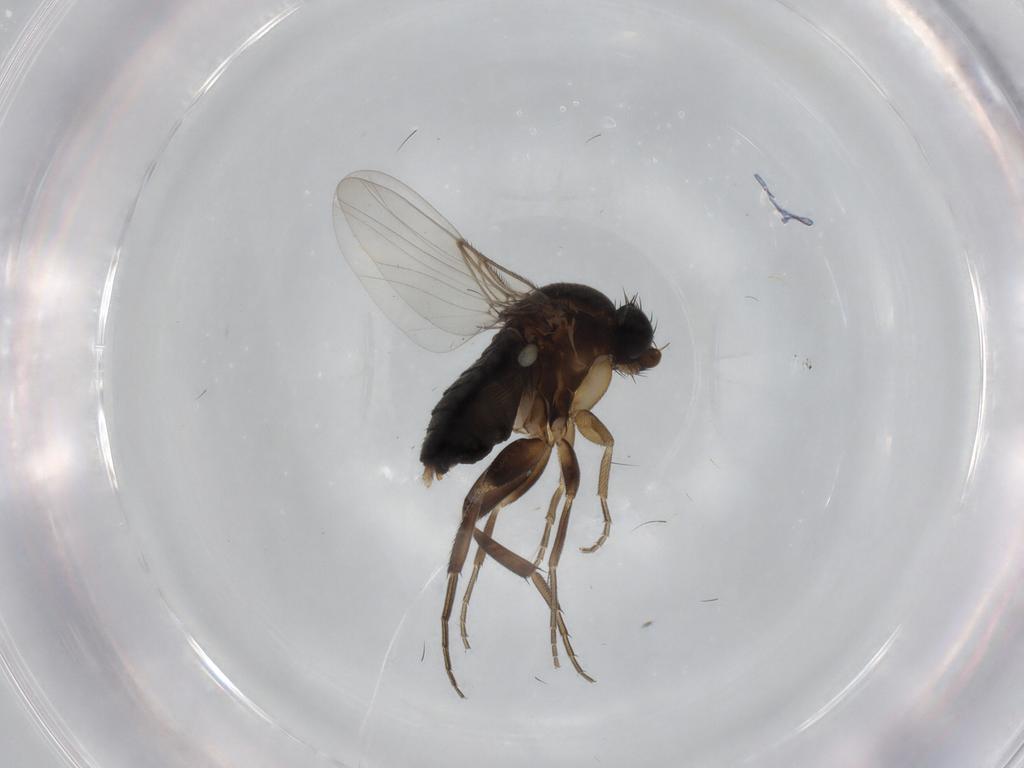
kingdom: Animalia
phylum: Arthropoda
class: Insecta
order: Diptera
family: Phoridae
